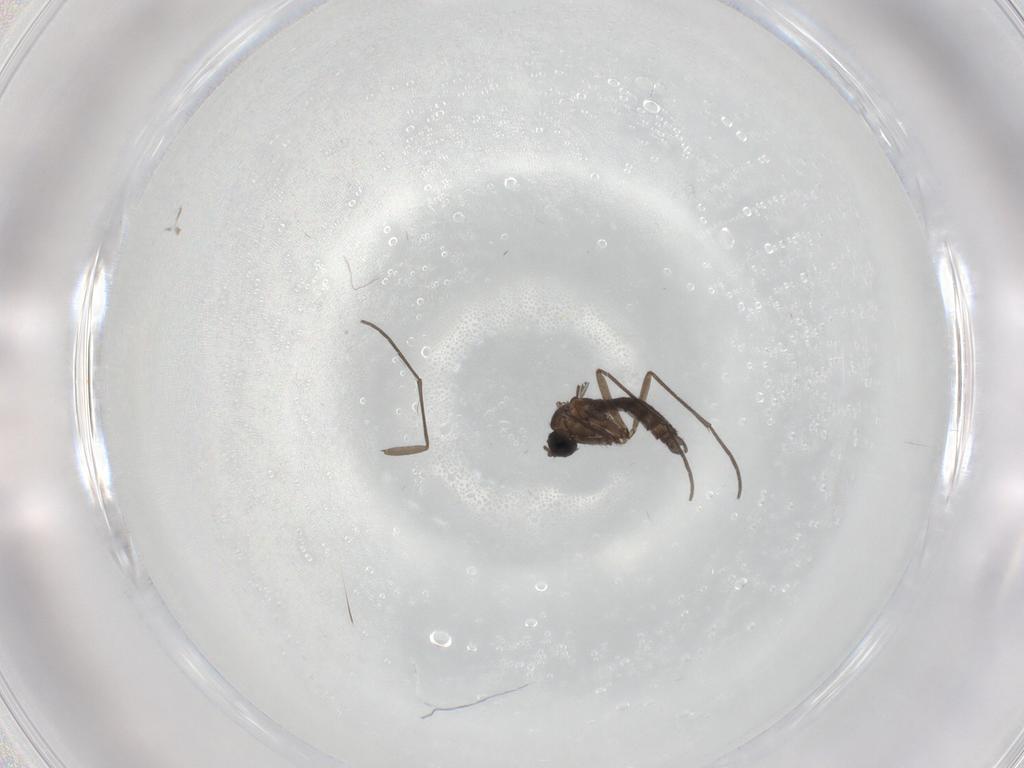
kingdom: Animalia
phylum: Arthropoda
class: Insecta
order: Diptera
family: Sciaridae
